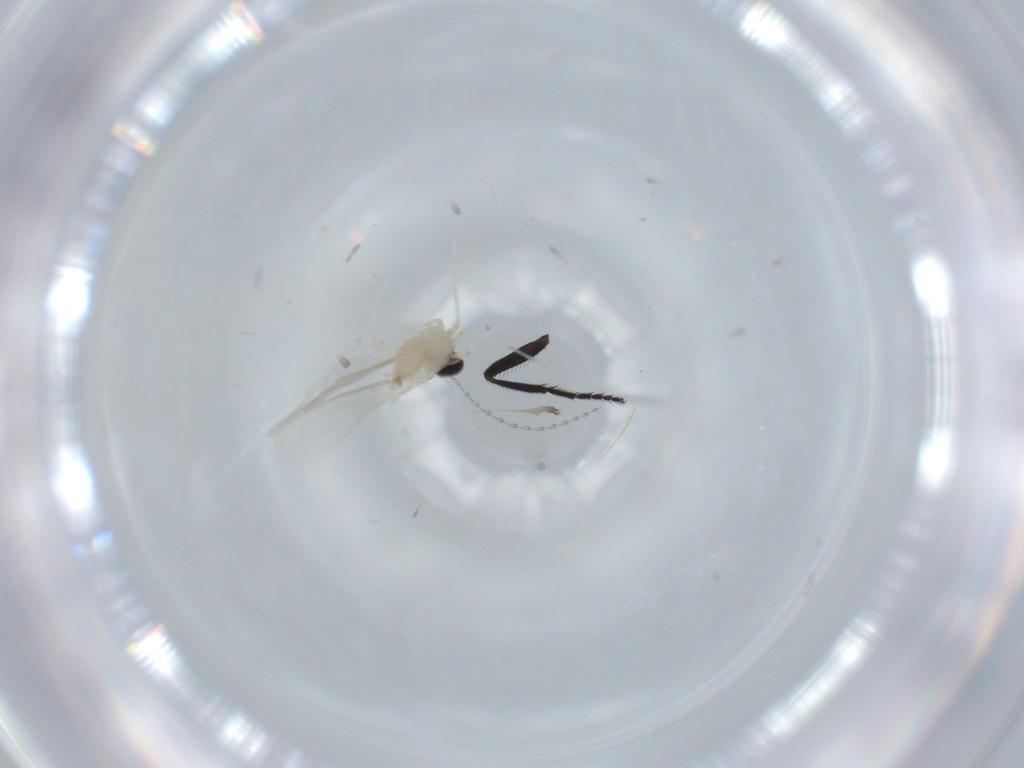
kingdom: Animalia
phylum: Arthropoda
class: Insecta
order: Diptera
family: Cecidomyiidae
